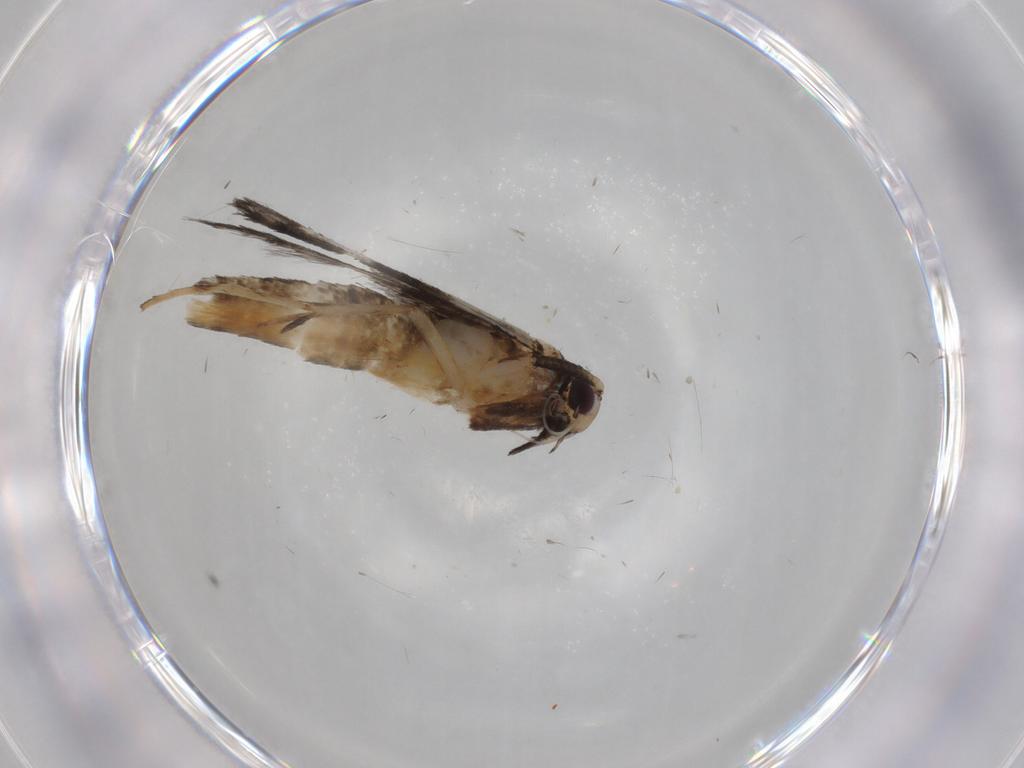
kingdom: Animalia
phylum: Arthropoda
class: Insecta
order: Lepidoptera
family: Gracillariidae
